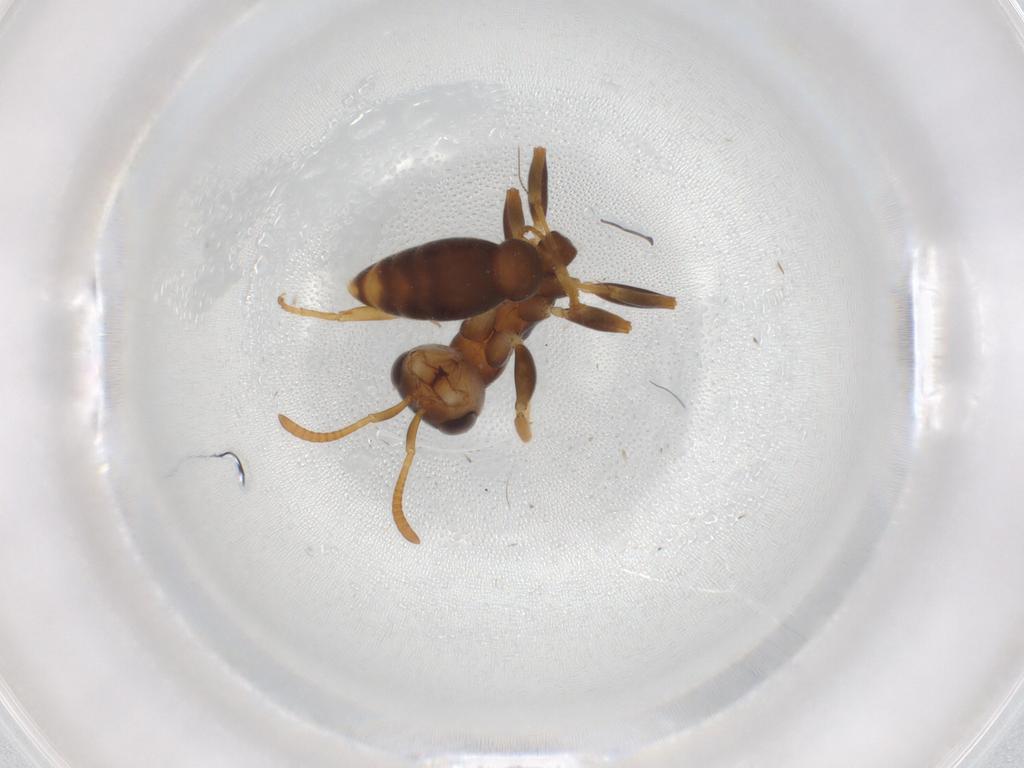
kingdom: Animalia
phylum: Arthropoda
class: Insecta
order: Hymenoptera
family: Formicidae
